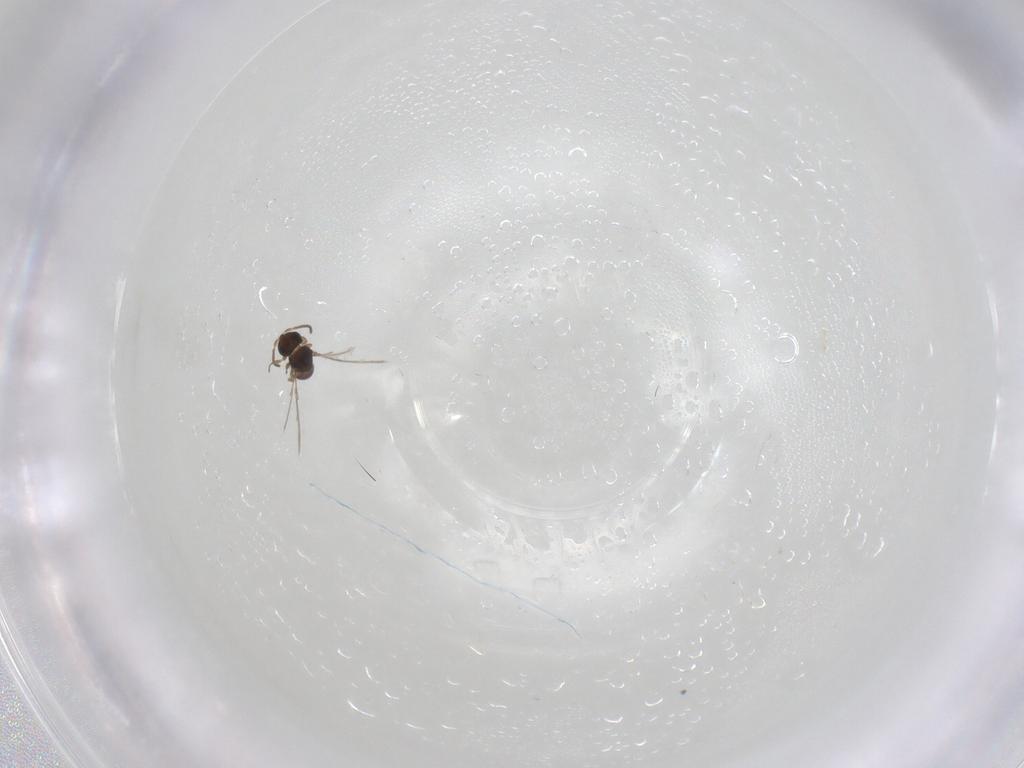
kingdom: Animalia
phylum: Arthropoda
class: Insecta
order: Hymenoptera
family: Scelionidae
